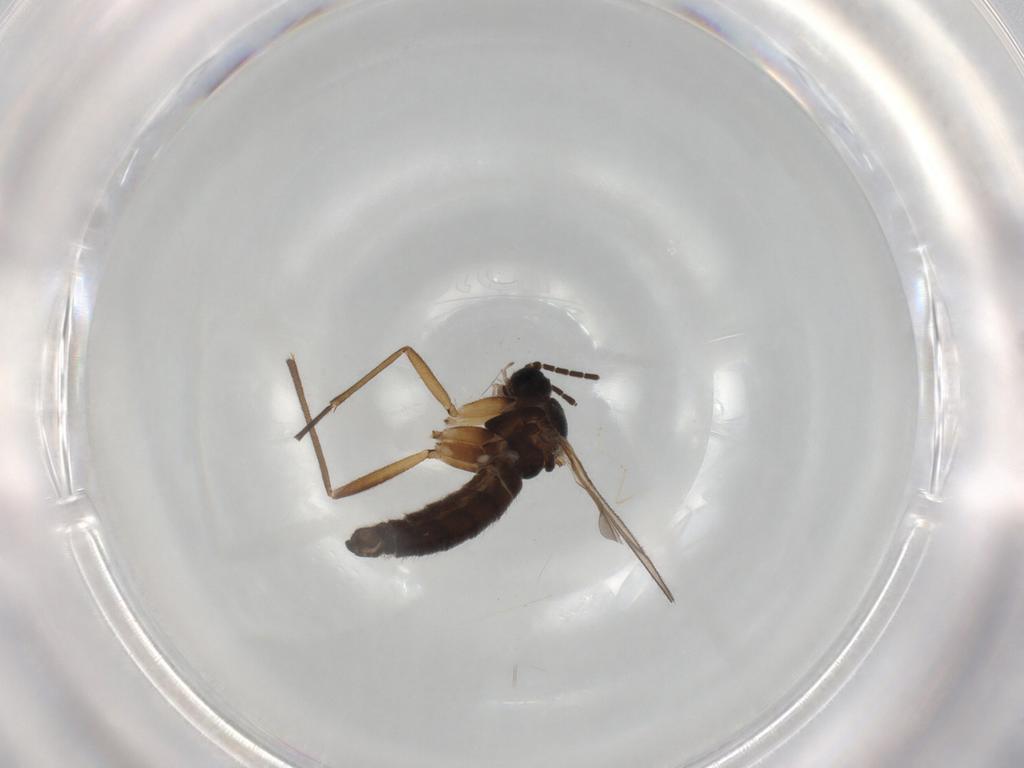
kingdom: Animalia
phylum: Arthropoda
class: Insecta
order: Diptera
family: Sciaridae
